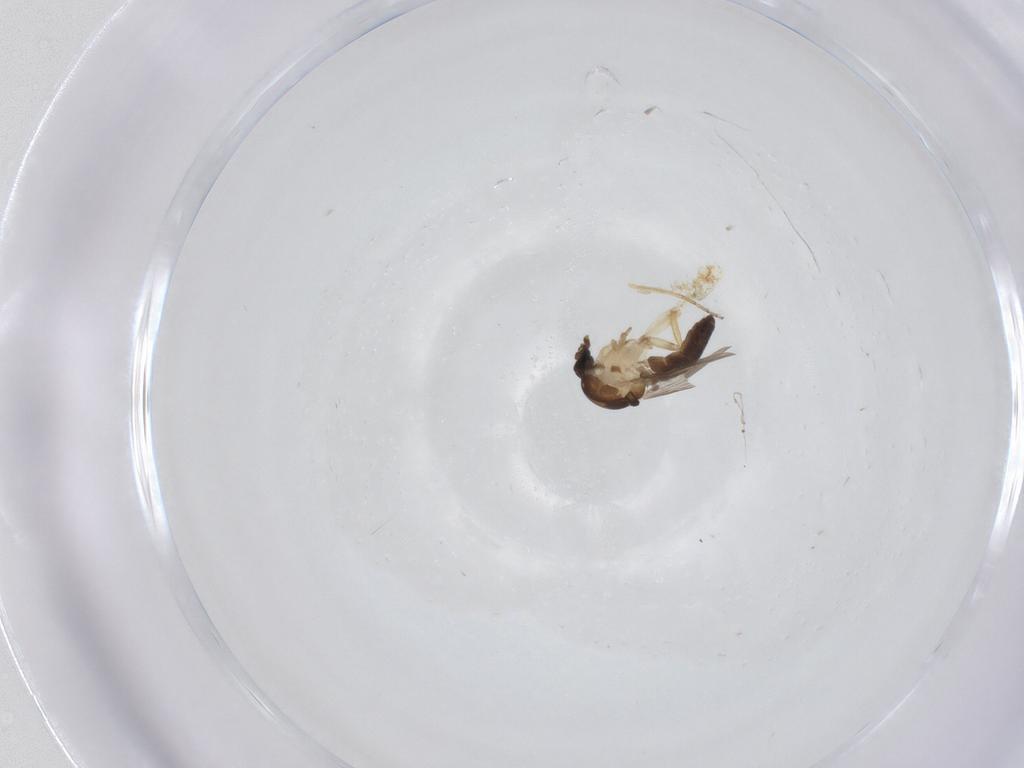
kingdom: Animalia
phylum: Arthropoda
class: Insecta
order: Diptera
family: Ceratopogonidae
